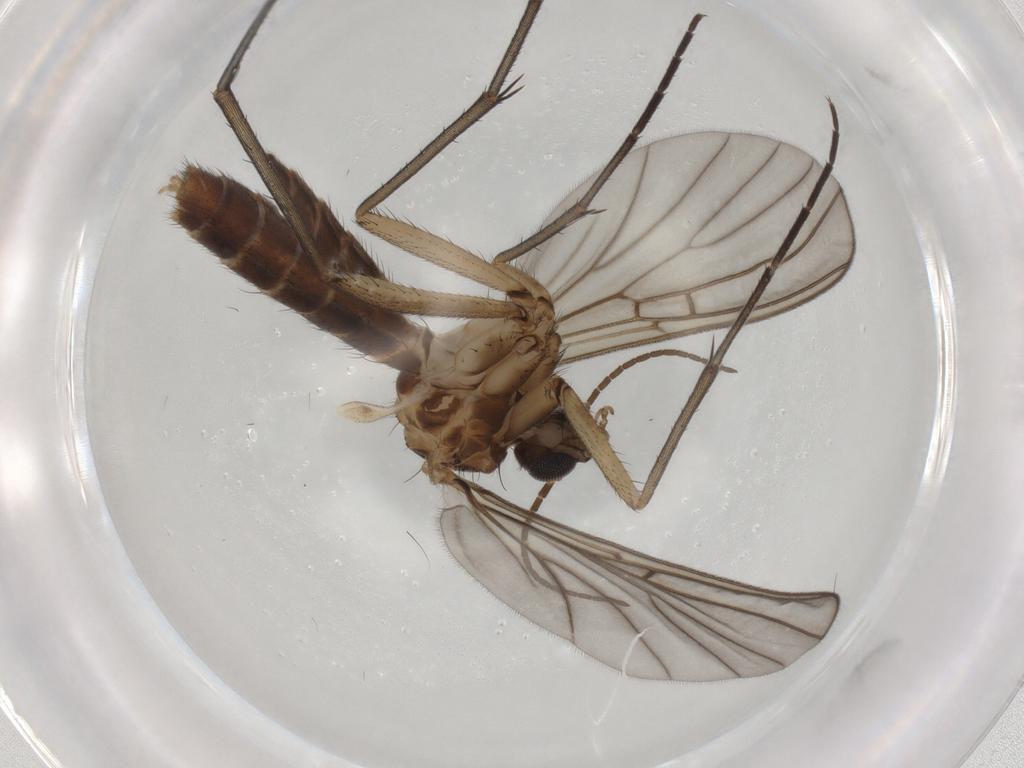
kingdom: Animalia
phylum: Arthropoda
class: Insecta
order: Diptera
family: Mycetophilidae
